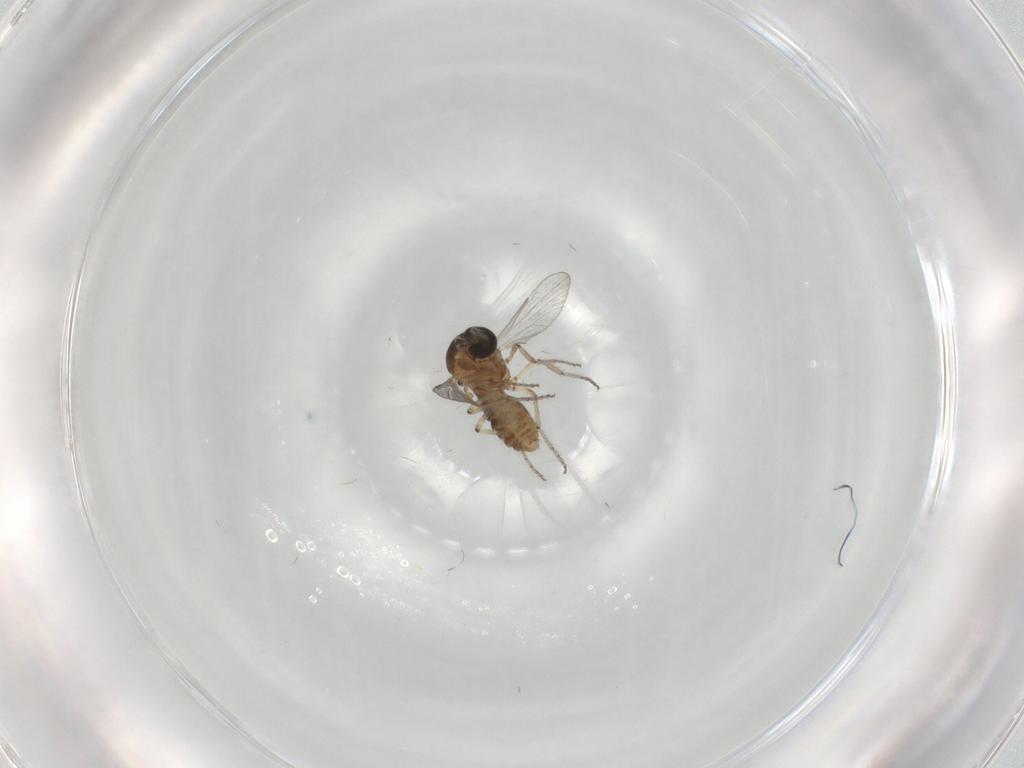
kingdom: Animalia
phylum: Arthropoda
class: Insecta
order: Diptera
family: Ceratopogonidae
